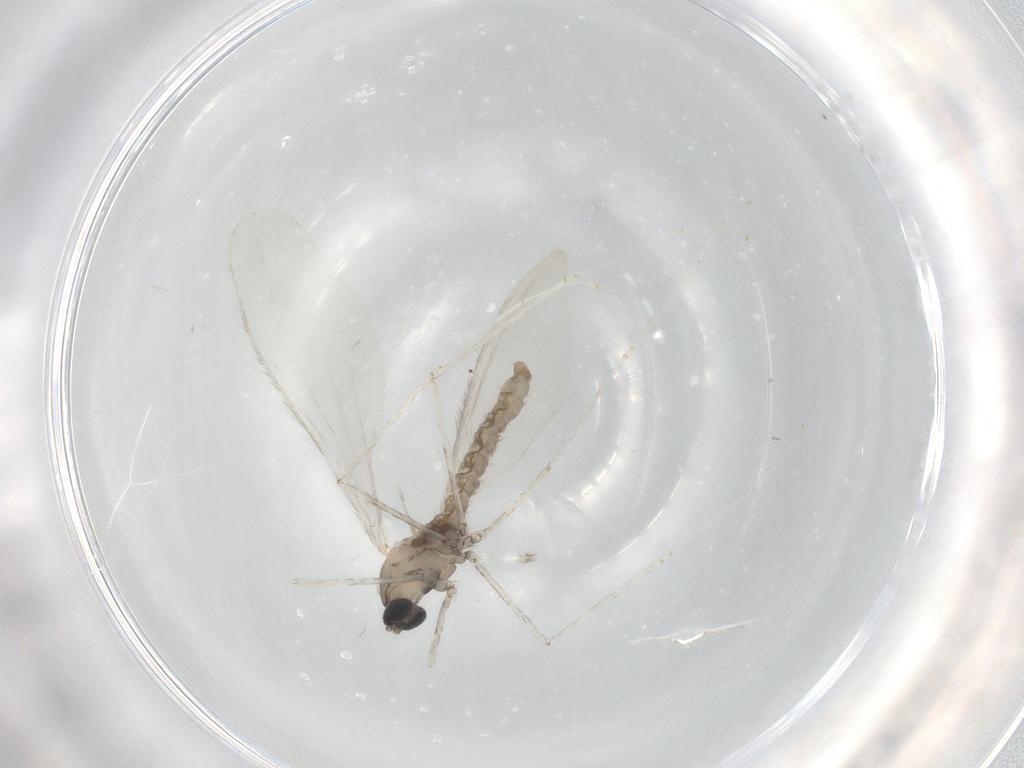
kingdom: Animalia
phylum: Arthropoda
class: Insecta
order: Diptera
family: Cecidomyiidae
